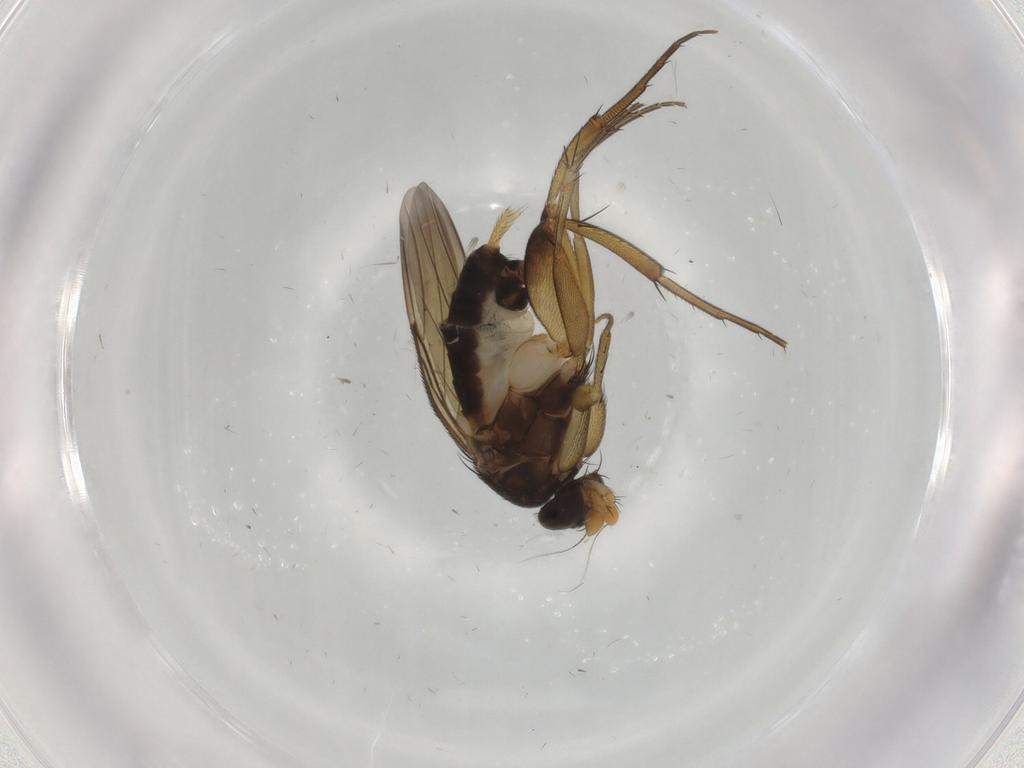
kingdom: Animalia
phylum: Arthropoda
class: Insecta
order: Diptera
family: Phoridae
